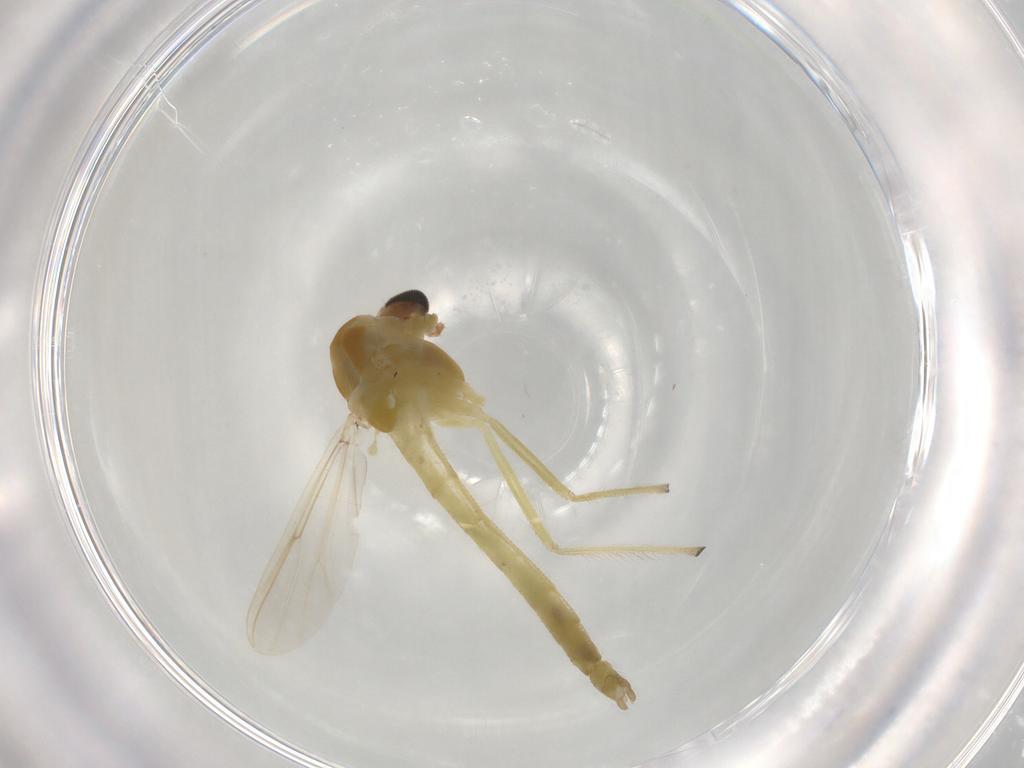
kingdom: Animalia
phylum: Arthropoda
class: Insecta
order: Diptera
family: Chironomidae
